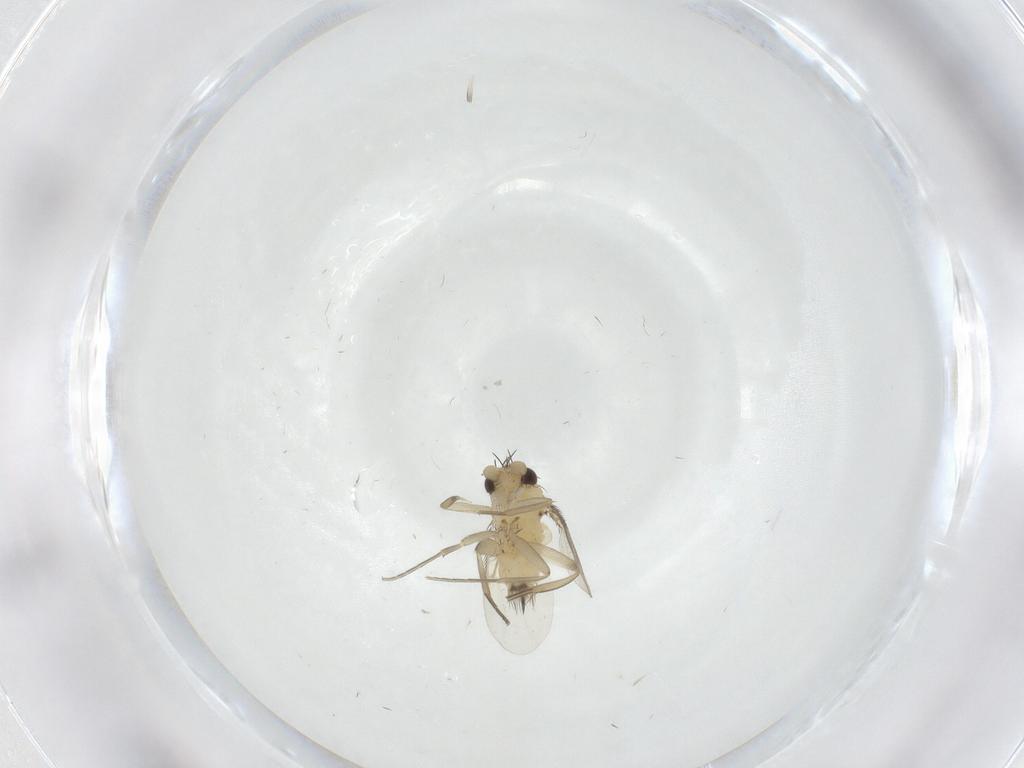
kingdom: Animalia
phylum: Arthropoda
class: Insecta
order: Diptera
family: Phoridae
